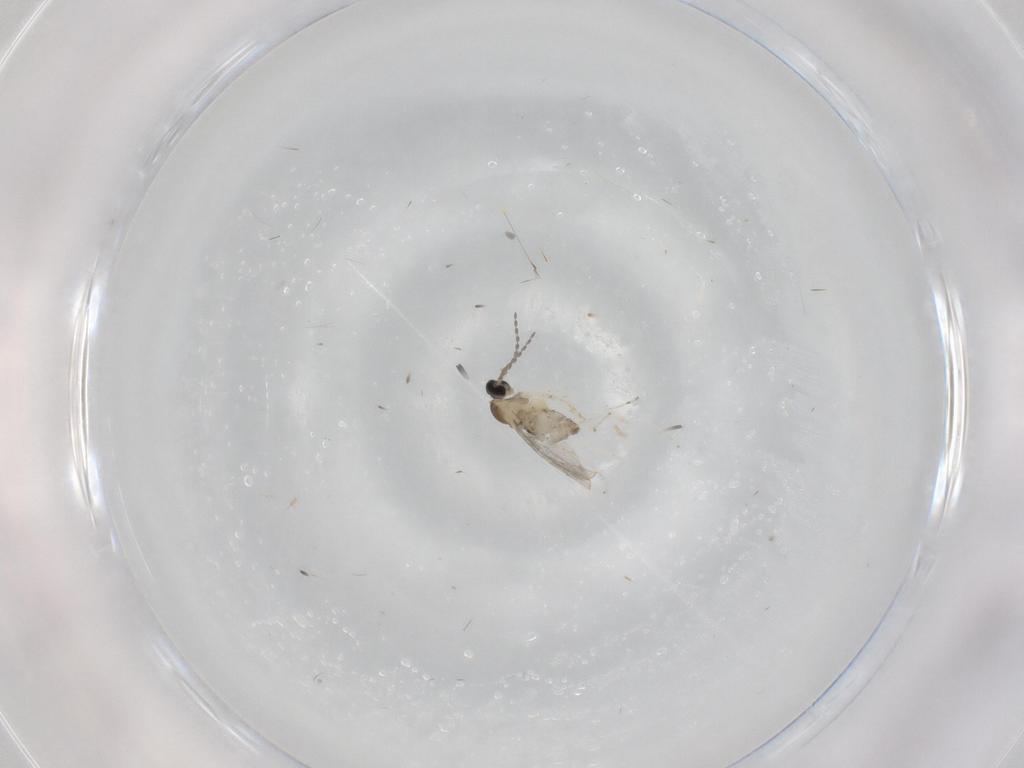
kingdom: Animalia
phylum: Arthropoda
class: Insecta
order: Diptera
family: Cecidomyiidae
